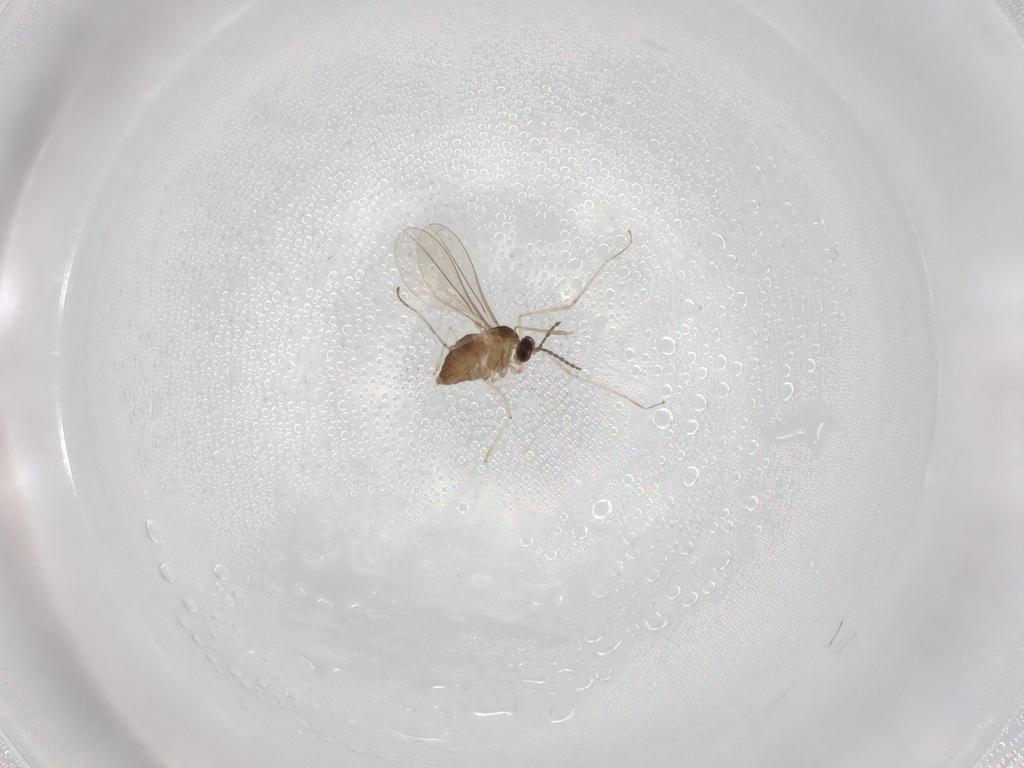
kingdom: Animalia
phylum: Arthropoda
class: Insecta
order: Diptera
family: Cecidomyiidae
